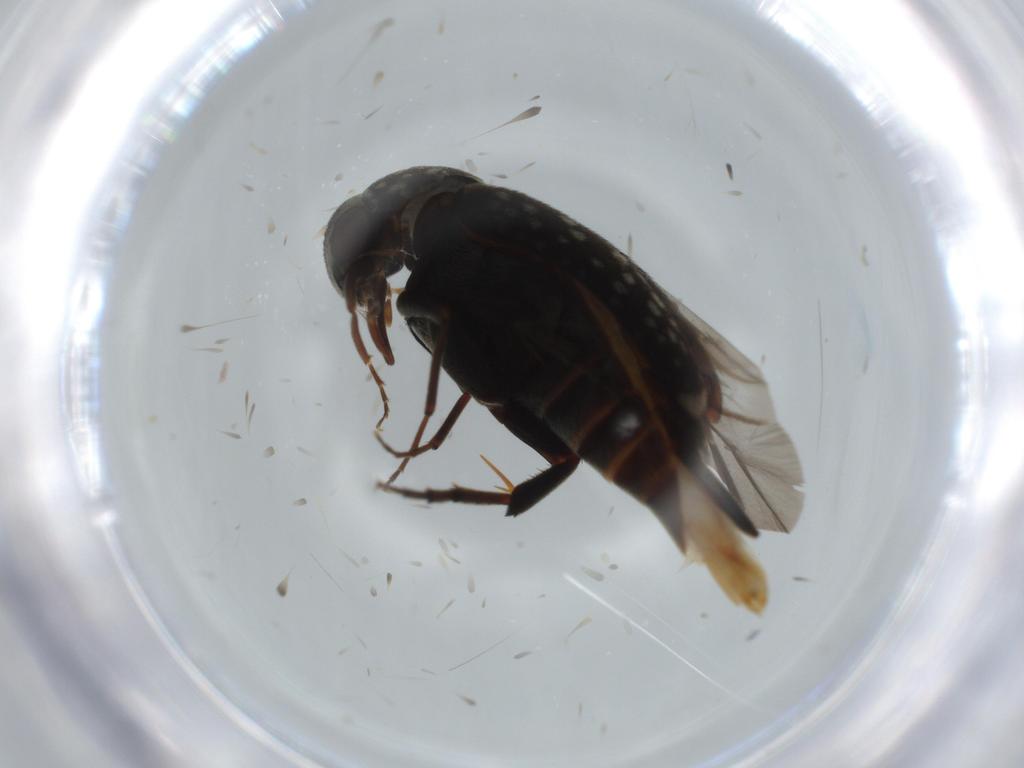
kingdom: Animalia
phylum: Arthropoda
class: Insecta
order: Coleoptera
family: Mordellidae
